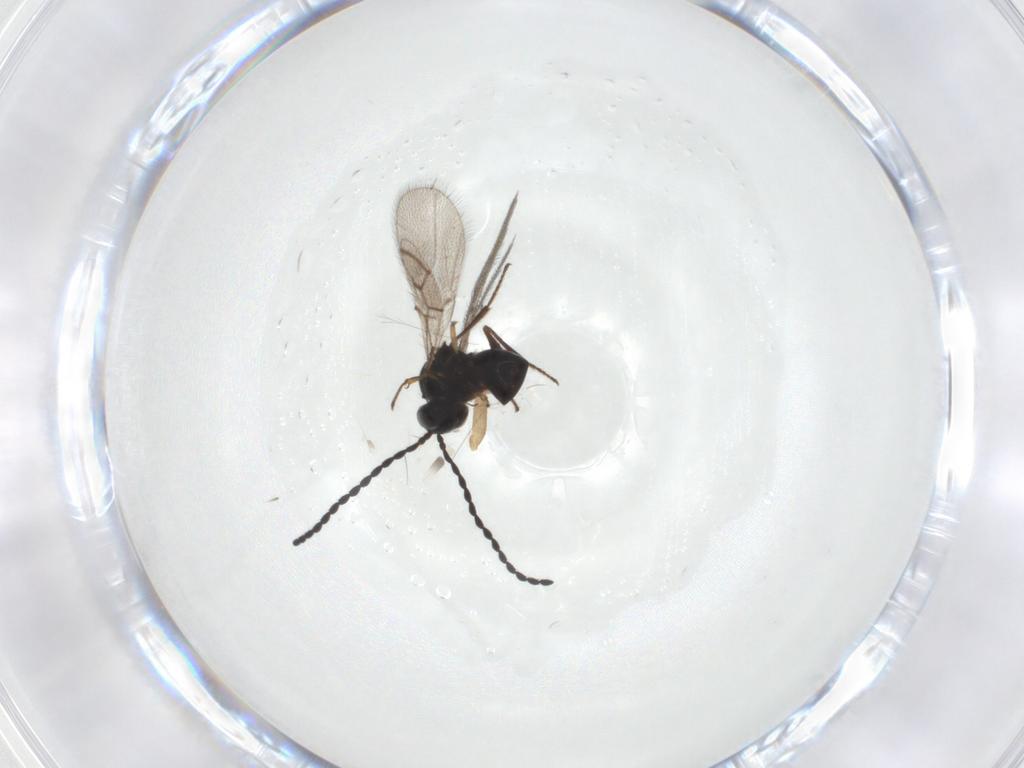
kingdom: Animalia
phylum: Arthropoda
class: Insecta
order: Hymenoptera
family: Figitidae
